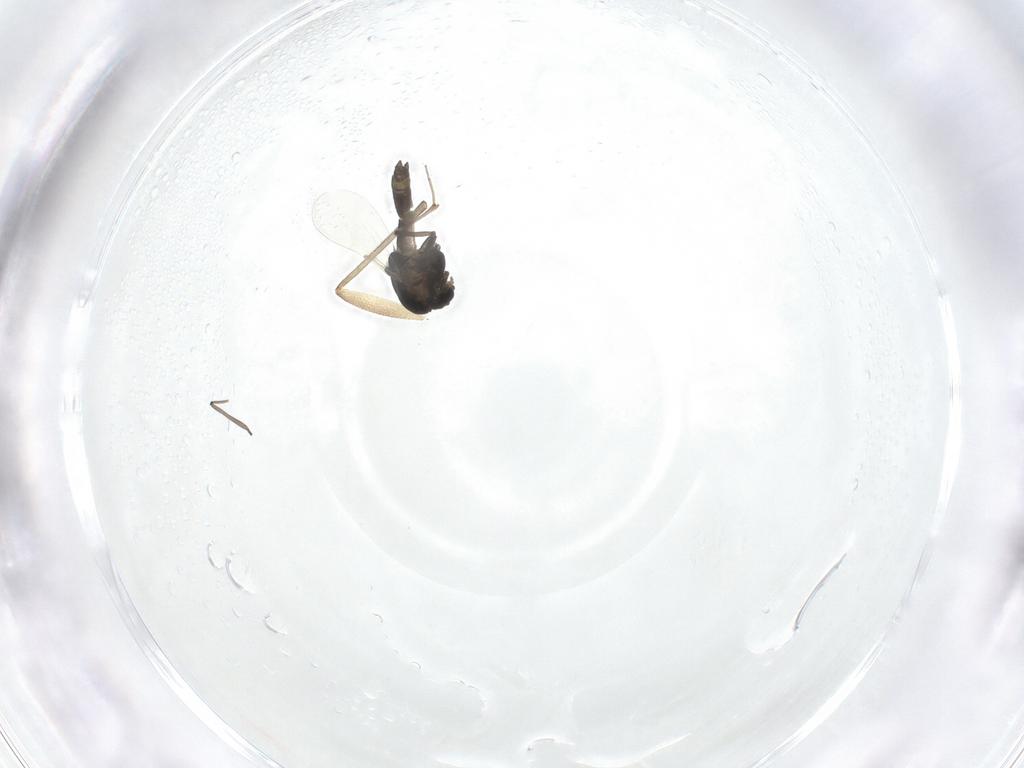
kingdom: Animalia
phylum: Arthropoda
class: Insecta
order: Diptera
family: Chironomidae
